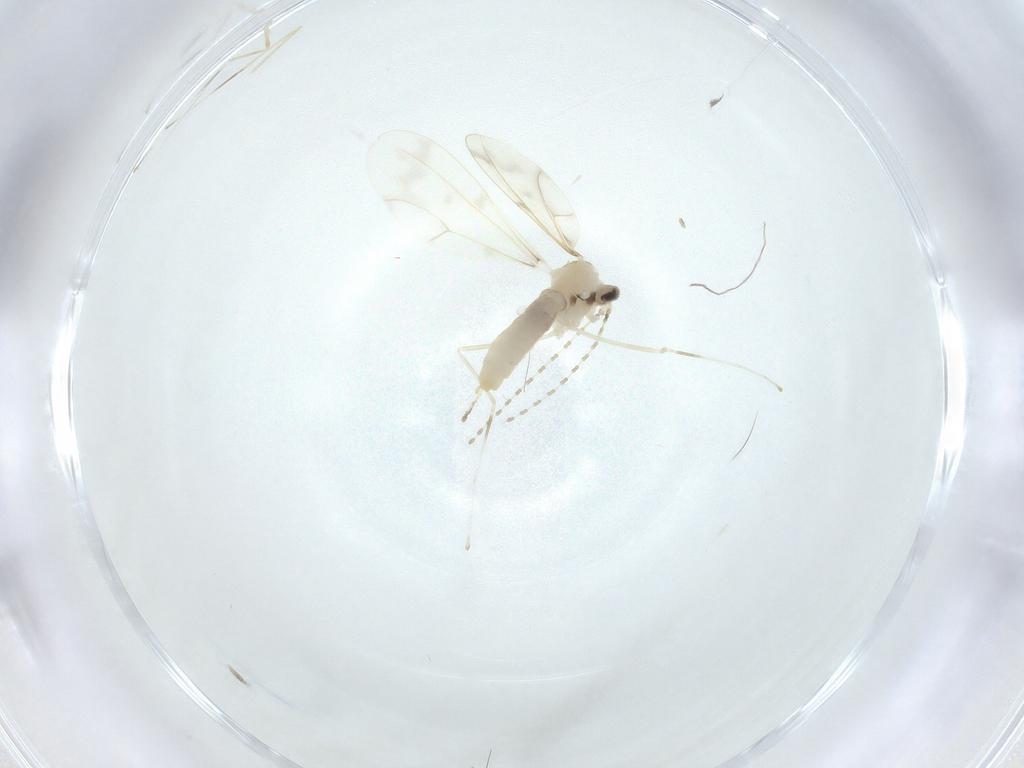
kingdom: Animalia
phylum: Arthropoda
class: Insecta
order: Diptera
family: Cecidomyiidae
